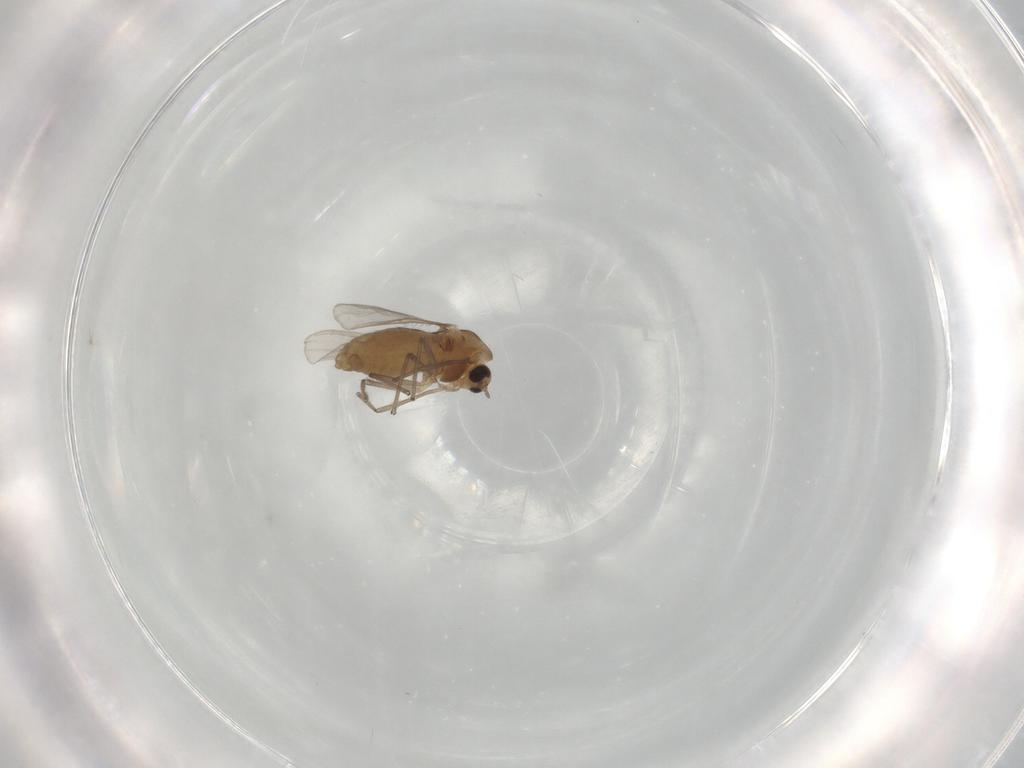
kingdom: Animalia
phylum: Arthropoda
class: Insecta
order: Diptera
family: Chironomidae
